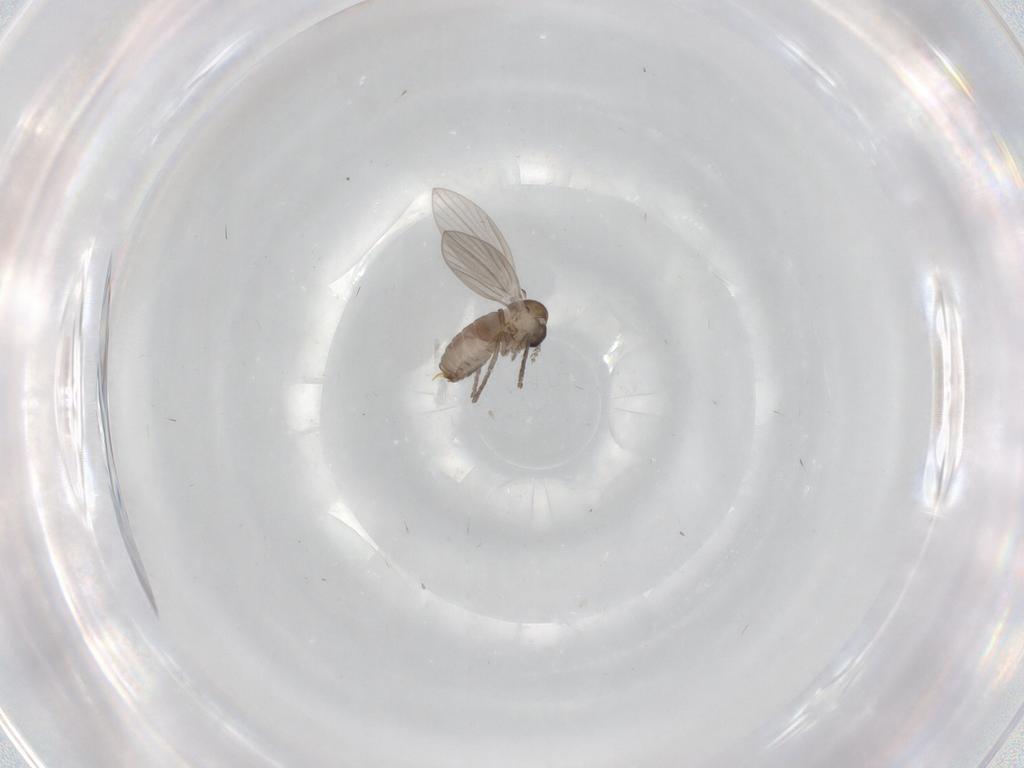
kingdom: Animalia
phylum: Arthropoda
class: Insecta
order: Diptera
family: Psychodidae
